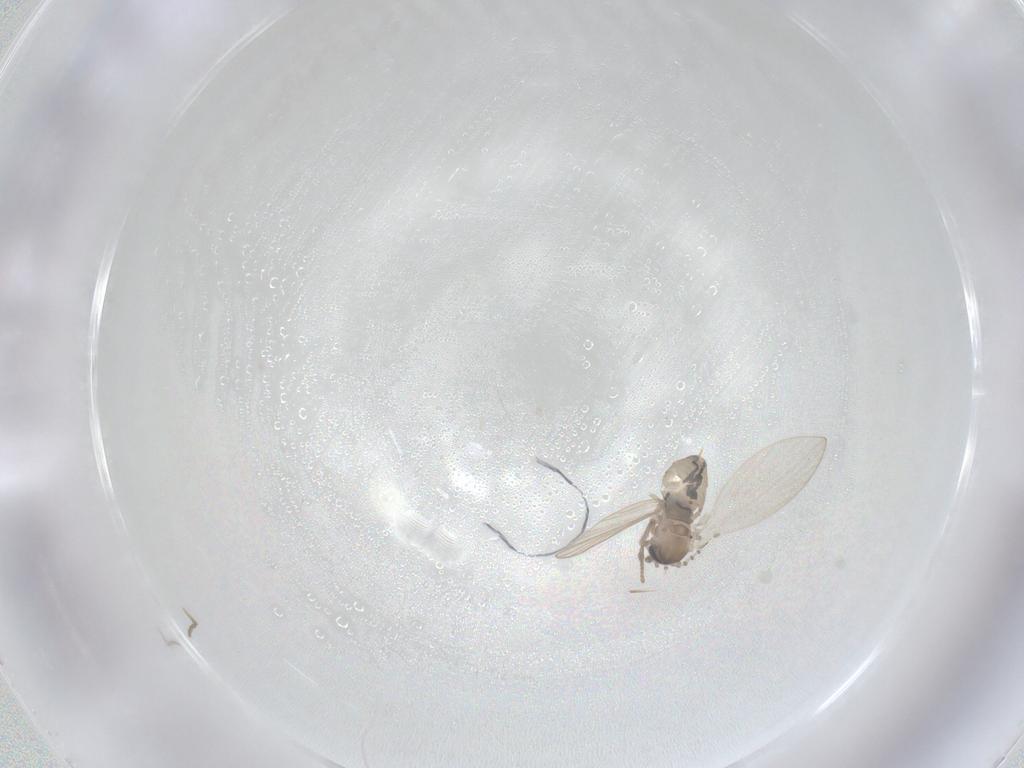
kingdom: Animalia
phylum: Arthropoda
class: Insecta
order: Diptera
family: Psychodidae
